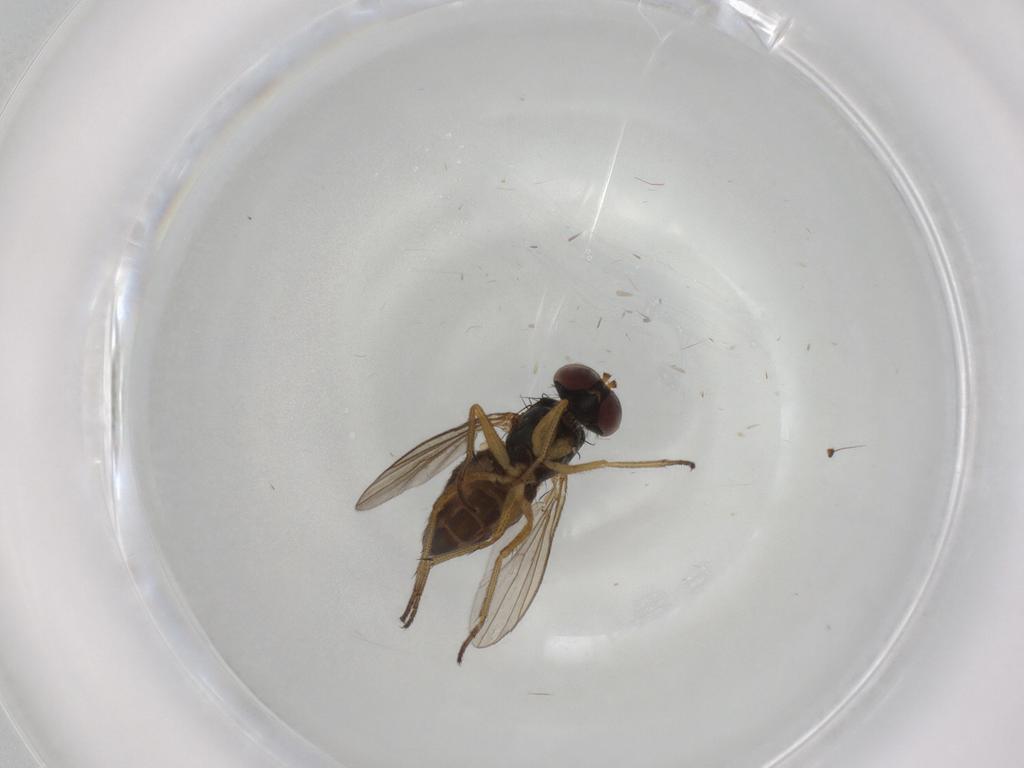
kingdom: Animalia
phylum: Arthropoda
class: Insecta
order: Diptera
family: Dolichopodidae
